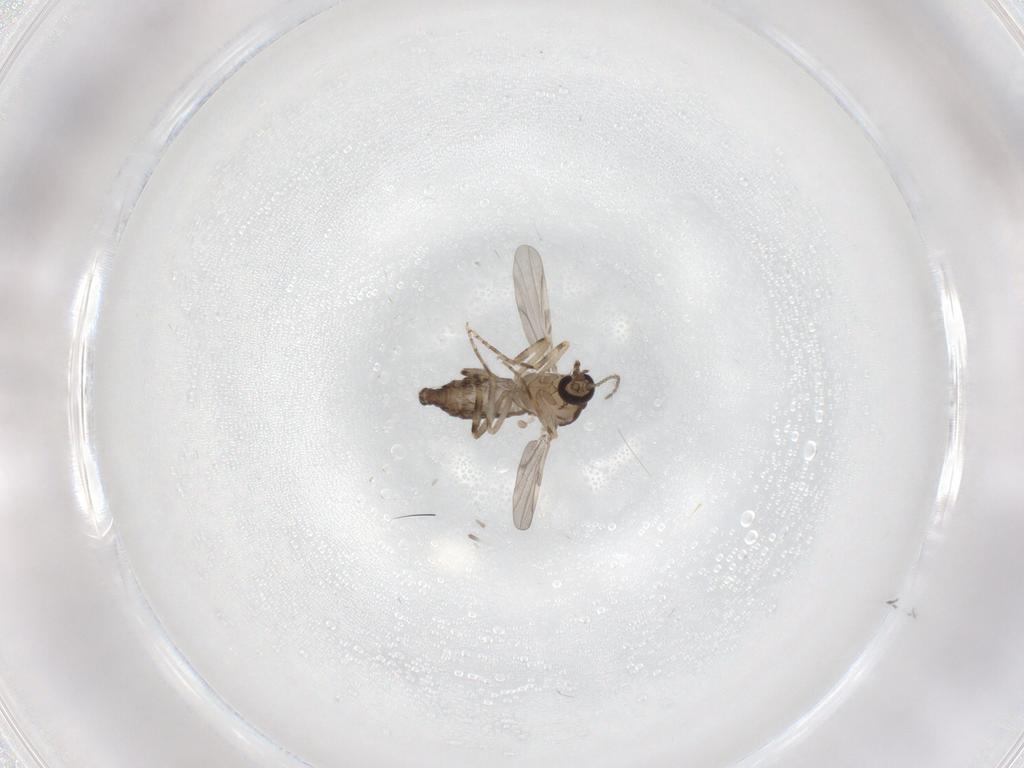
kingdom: Animalia
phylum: Arthropoda
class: Insecta
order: Diptera
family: Ceratopogonidae
